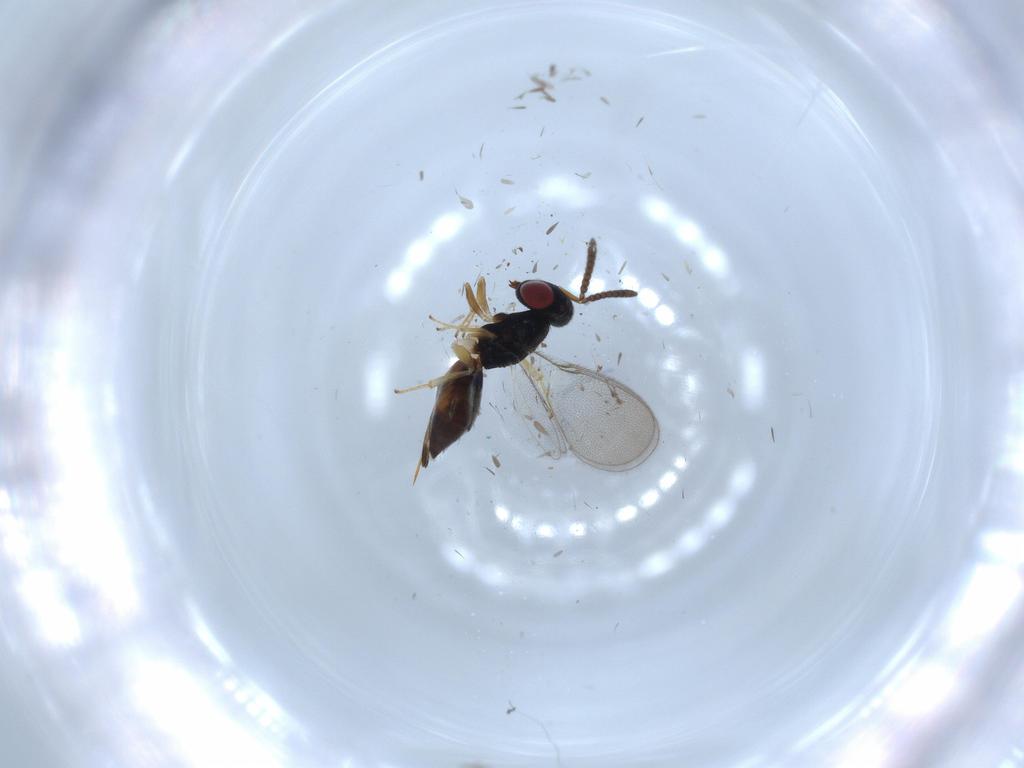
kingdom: Animalia
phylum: Arthropoda
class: Insecta
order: Hymenoptera
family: Pteromalidae
